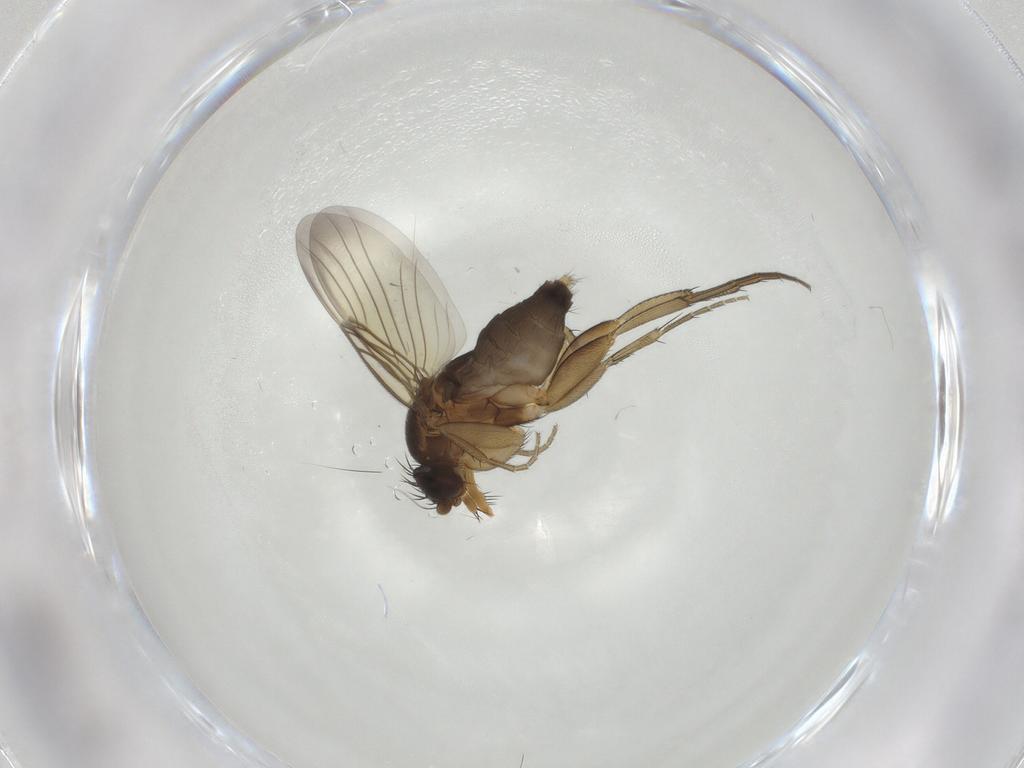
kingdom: Animalia
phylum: Arthropoda
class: Insecta
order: Diptera
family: Phoridae
